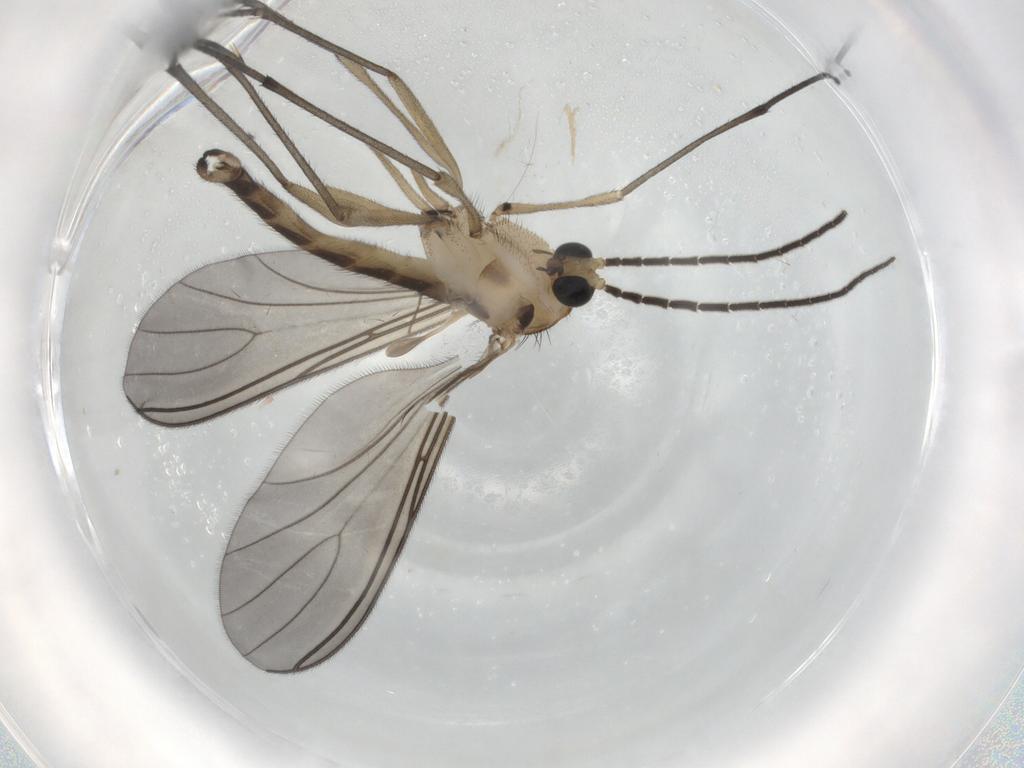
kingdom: Animalia
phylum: Arthropoda
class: Insecta
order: Diptera
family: Sciaridae
